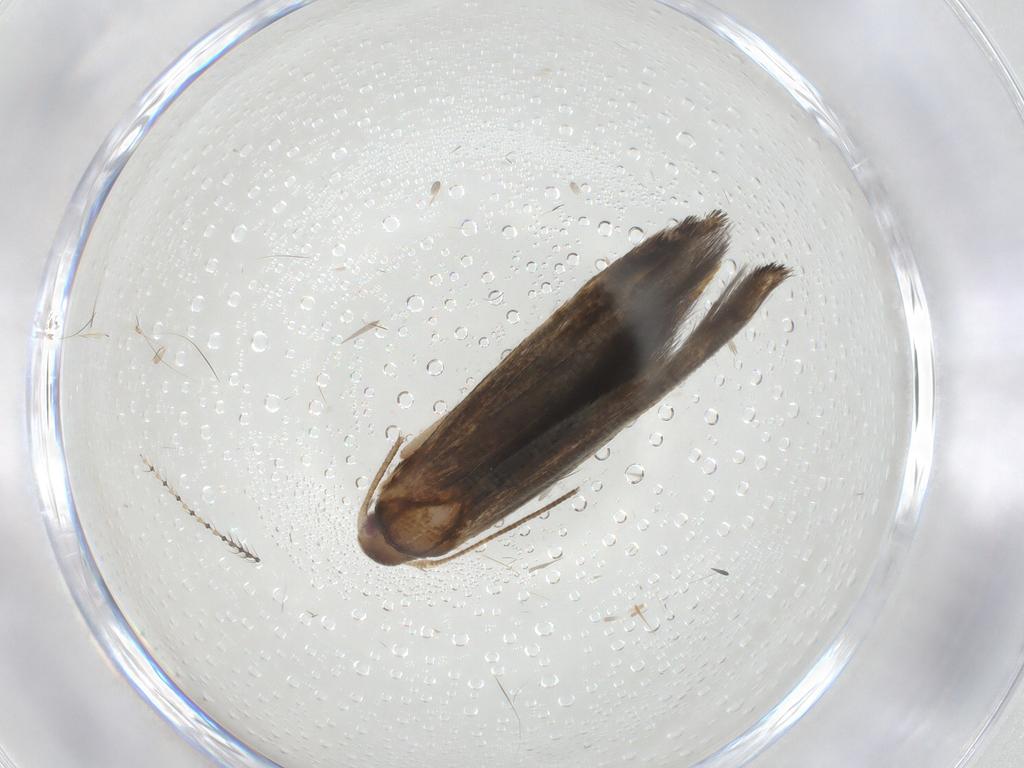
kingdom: Animalia
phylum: Arthropoda
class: Insecta
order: Lepidoptera
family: Momphidae
